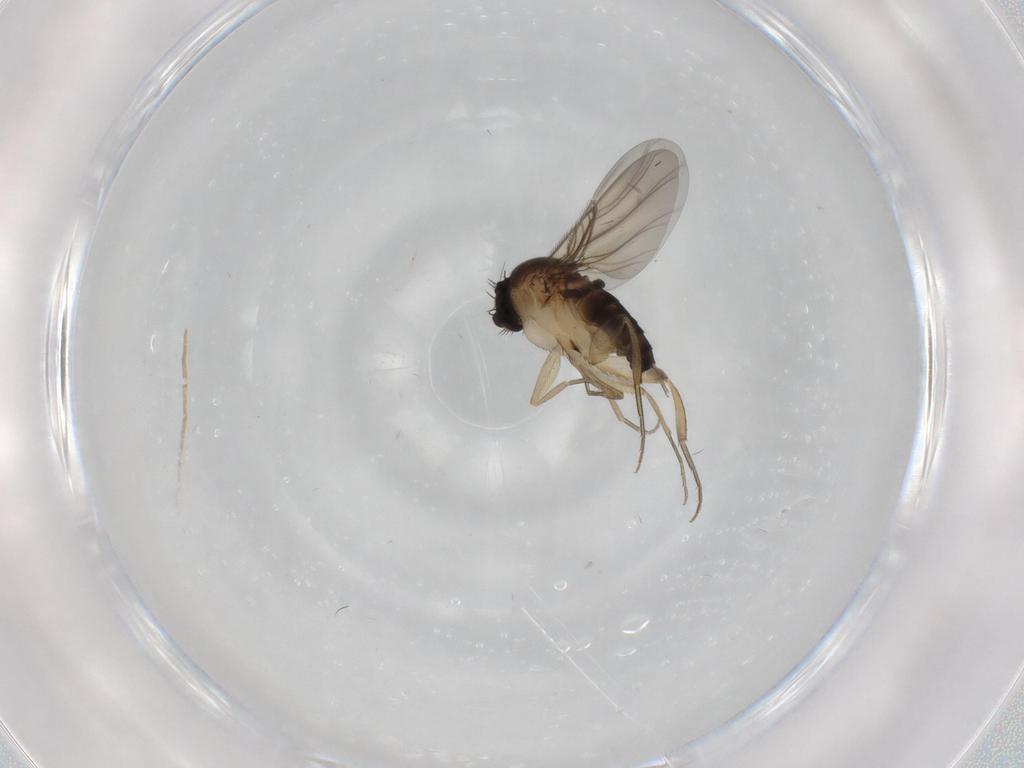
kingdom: Animalia
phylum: Arthropoda
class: Insecta
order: Diptera
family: Phoridae
